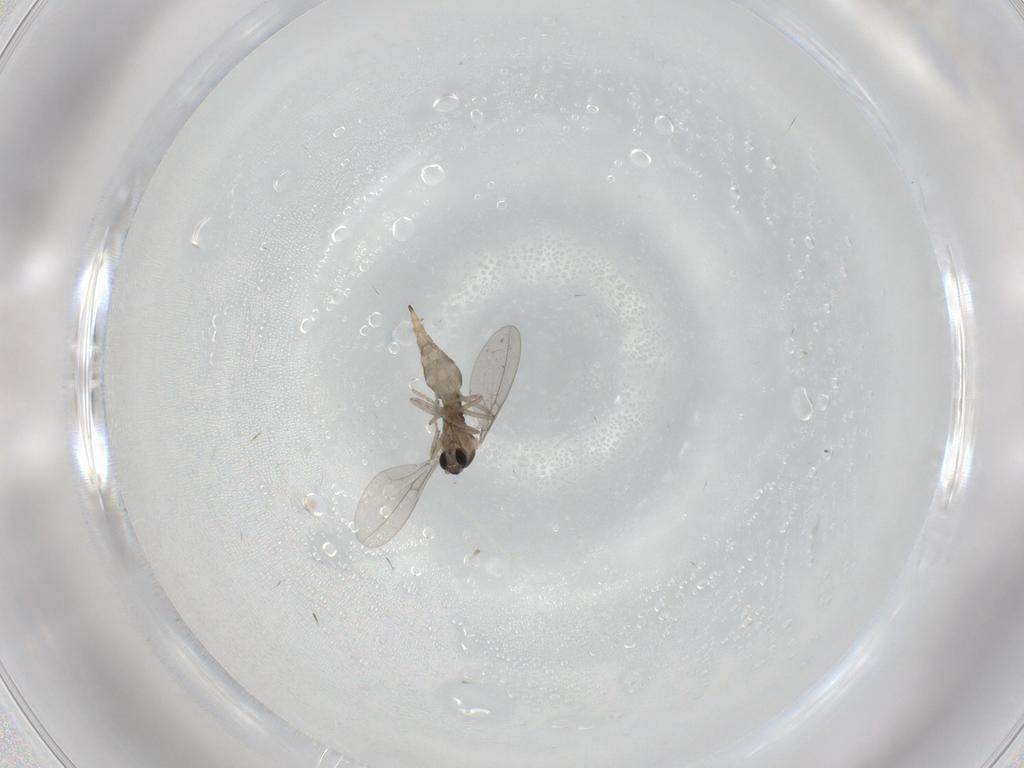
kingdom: Animalia
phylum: Arthropoda
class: Insecta
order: Diptera
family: Cecidomyiidae
